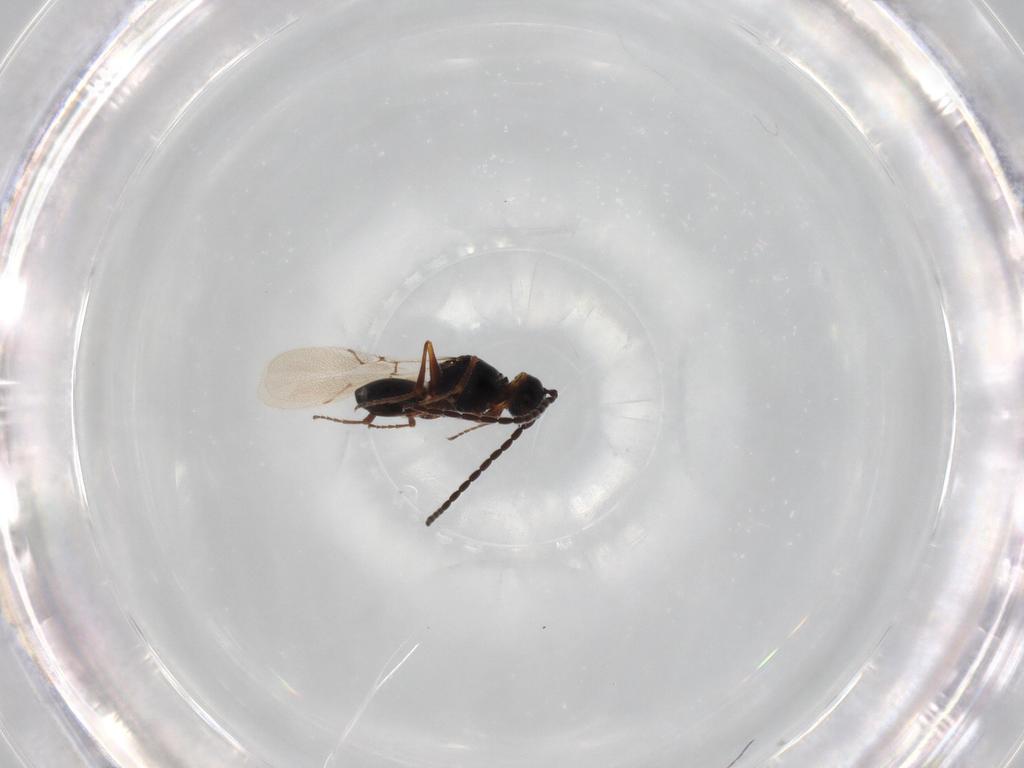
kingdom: Animalia
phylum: Arthropoda
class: Insecta
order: Hymenoptera
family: Figitidae
